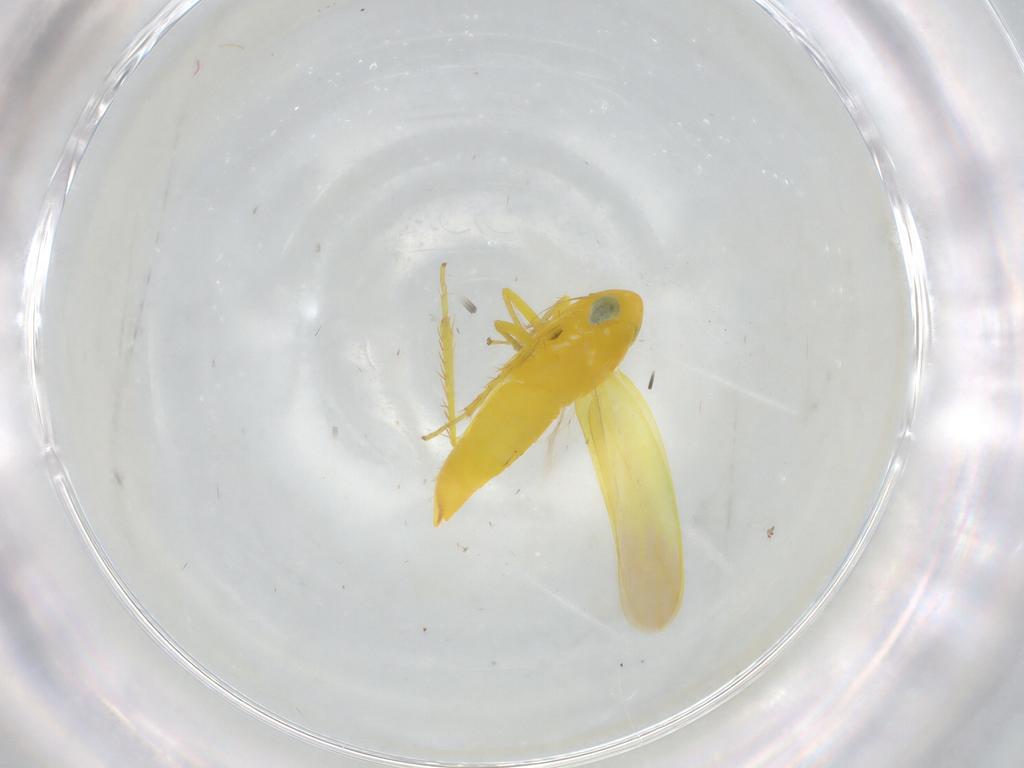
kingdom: Animalia
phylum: Arthropoda
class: Insecta
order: Hemiptera
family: Cicadellidae
